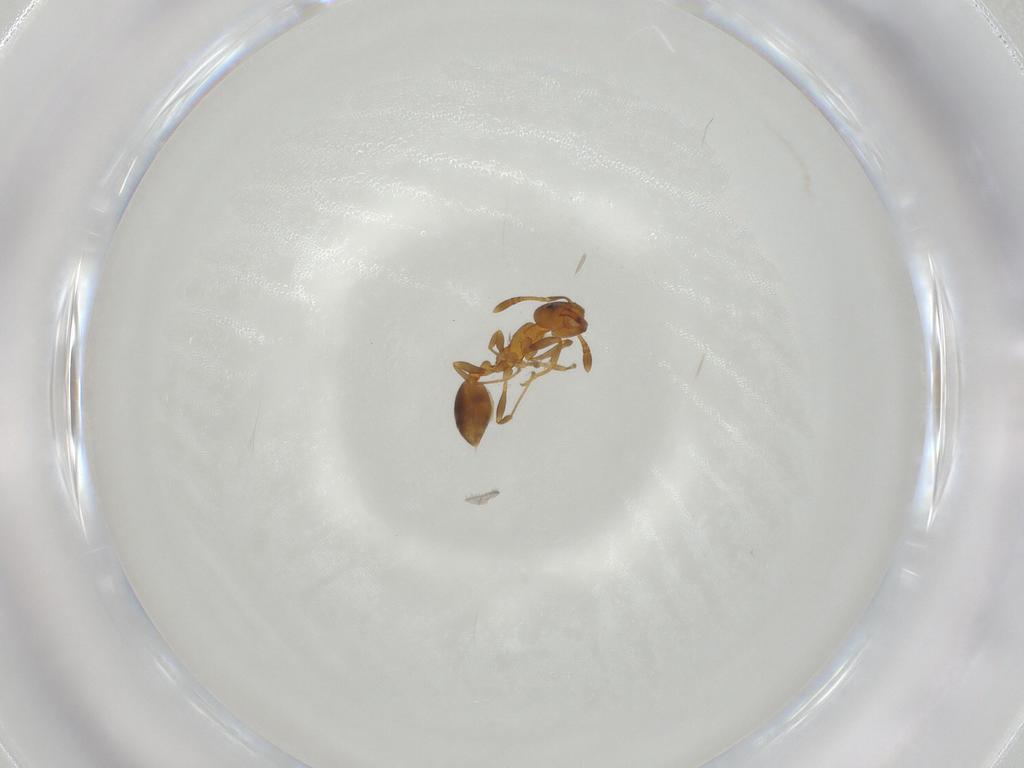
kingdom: Animalia
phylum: Arthropoda
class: Insecta
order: Hymenoptera
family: Formicidae
